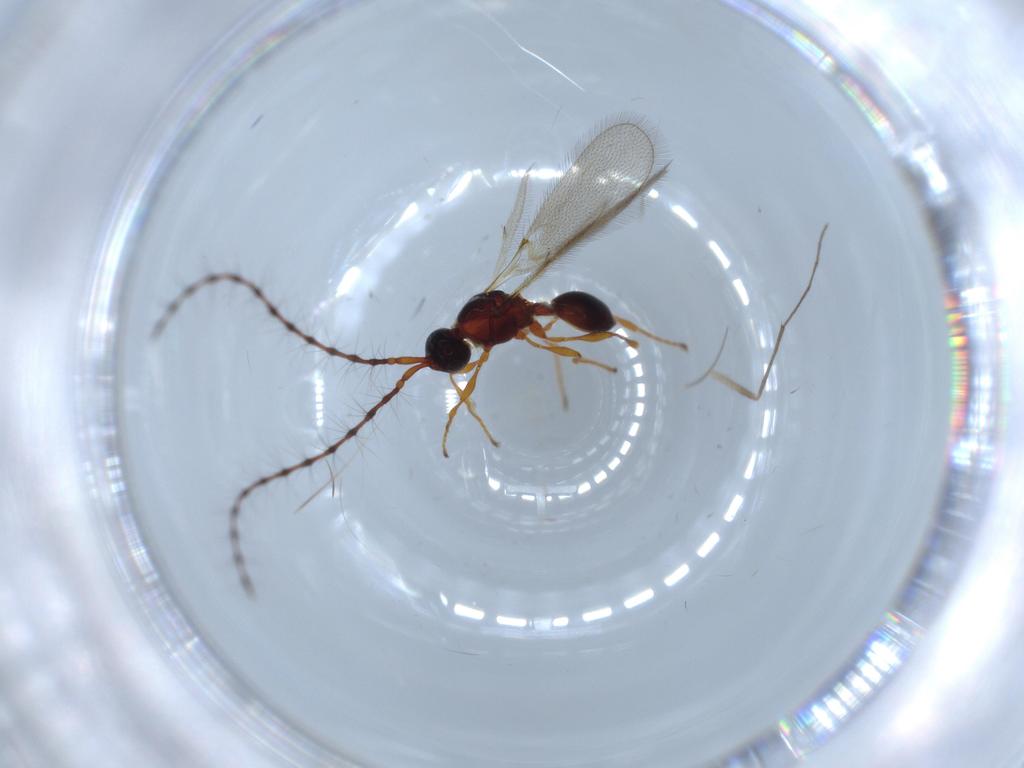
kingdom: Animalia
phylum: Arthropoda
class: Insecta
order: Hymenoptera
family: Diapriidae
